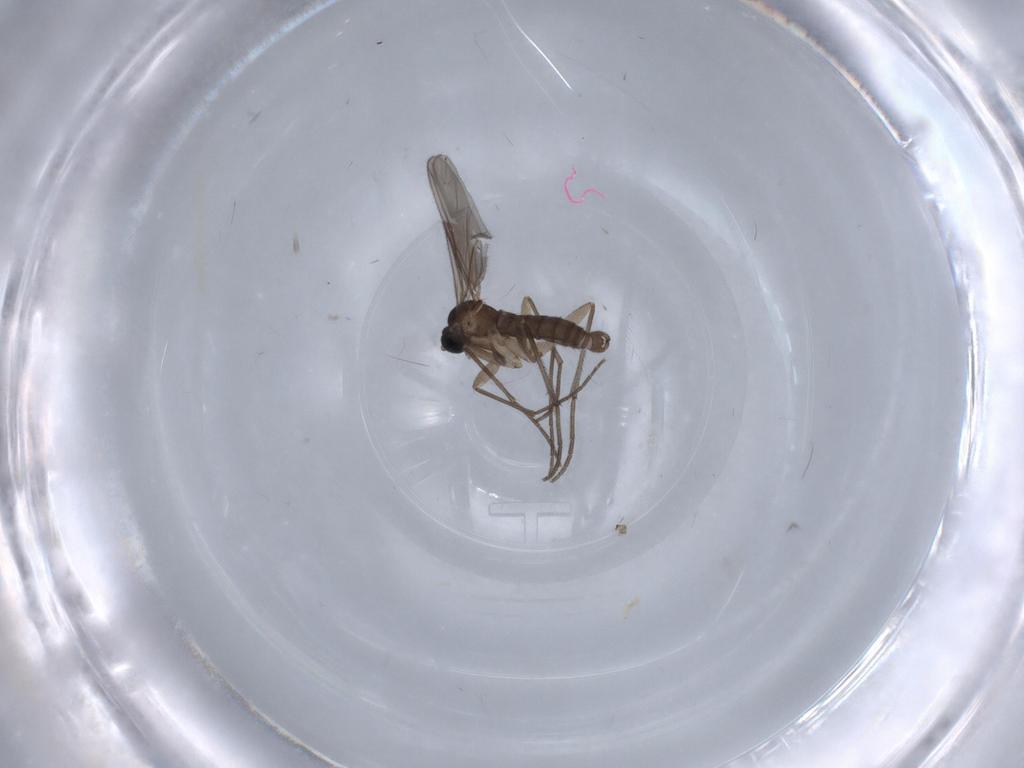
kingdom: Animalia
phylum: Arthropoda
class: Insecta
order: Diptera
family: Sciaridae
